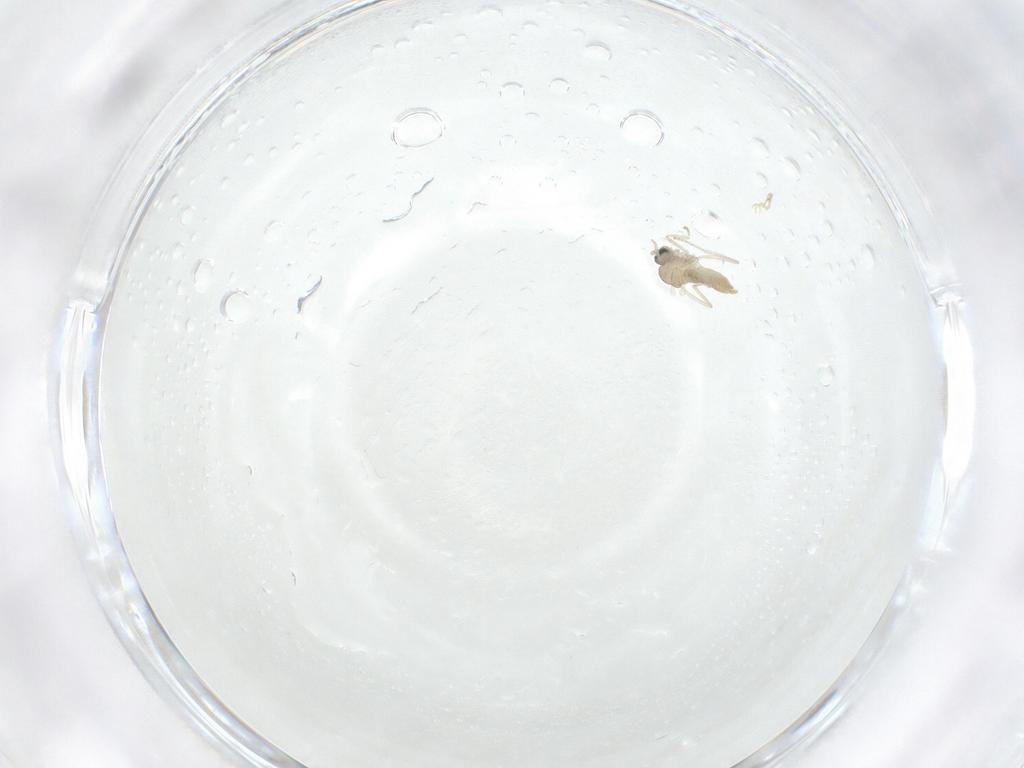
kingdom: Animalia
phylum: Arthropoda
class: Insecta
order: Diptera
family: Cecidomyiidae
